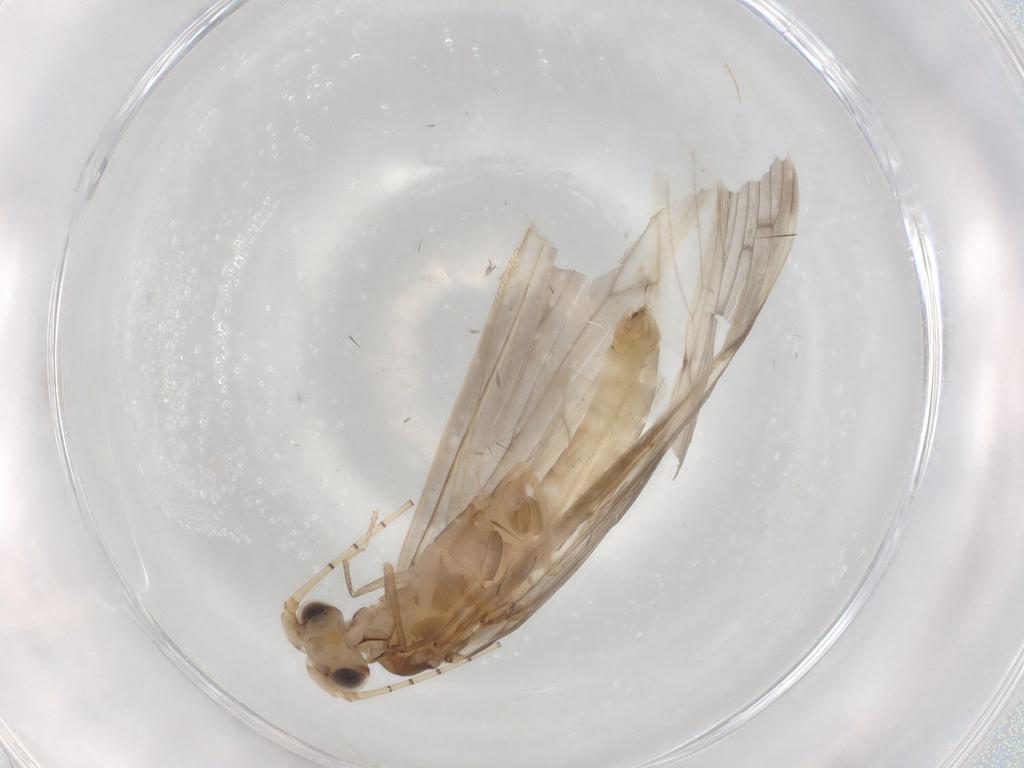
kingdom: Animalia
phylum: Arthropoda
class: Insecta
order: Trichoptera
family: Leptoceridae
